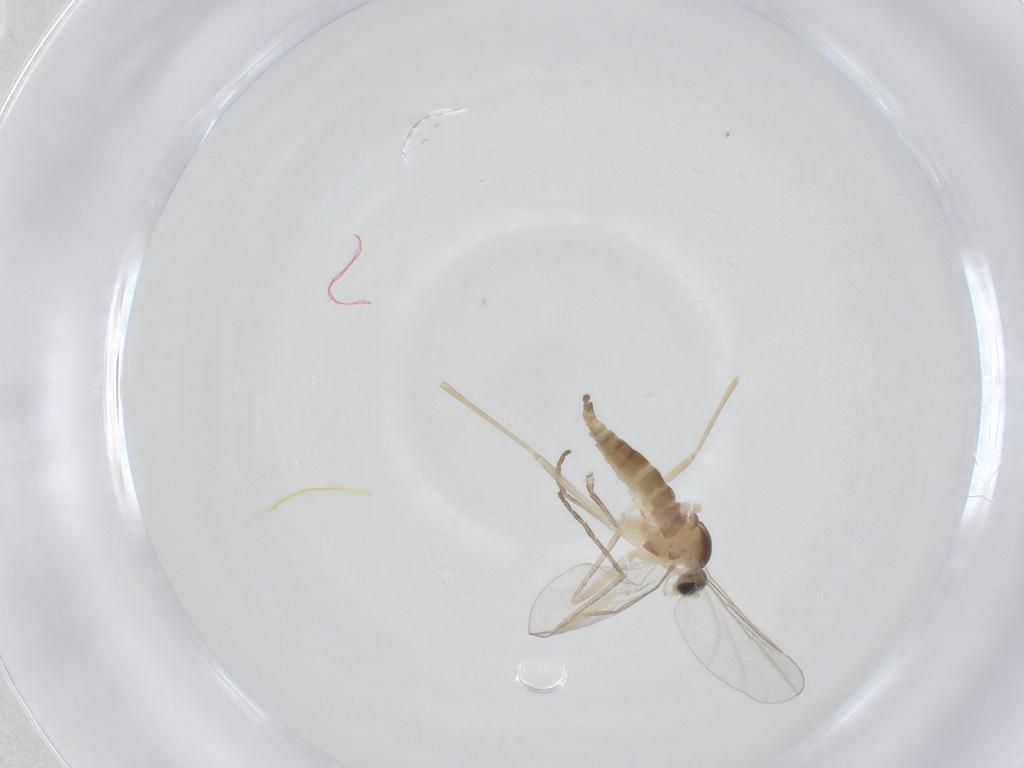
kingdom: Animalia
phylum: Arthropoda
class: Insecta
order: Diptera
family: Cecidomyiidae
